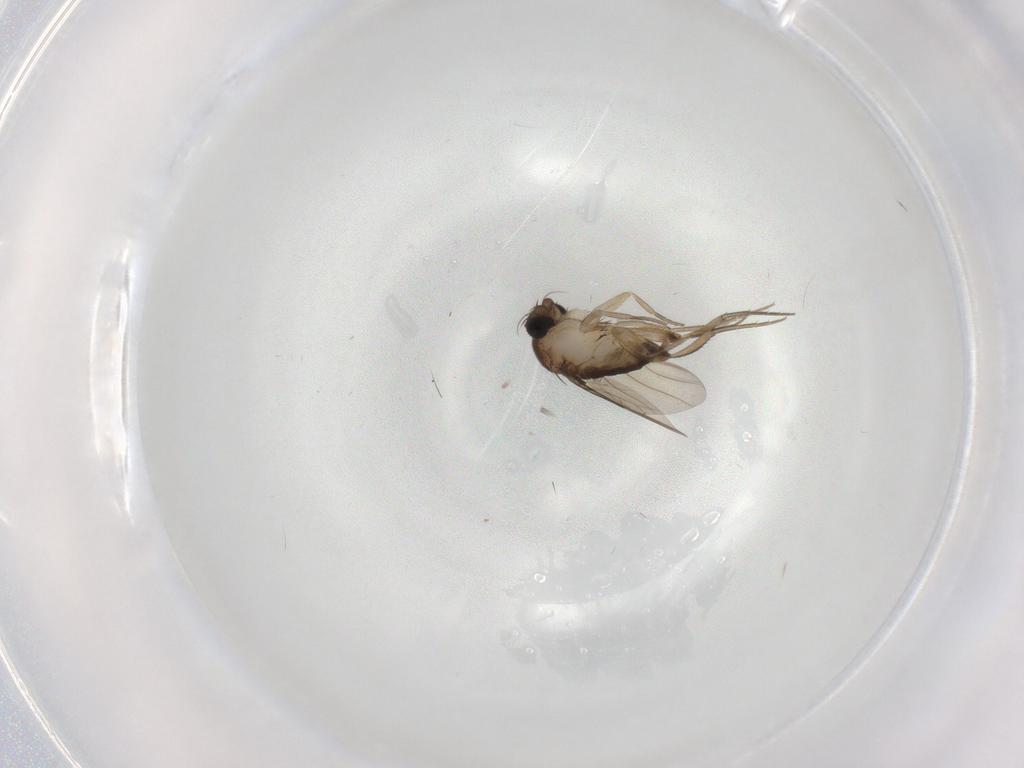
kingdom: Animalia
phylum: Arthropoda
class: Insecta
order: Diptera
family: Phoridae
